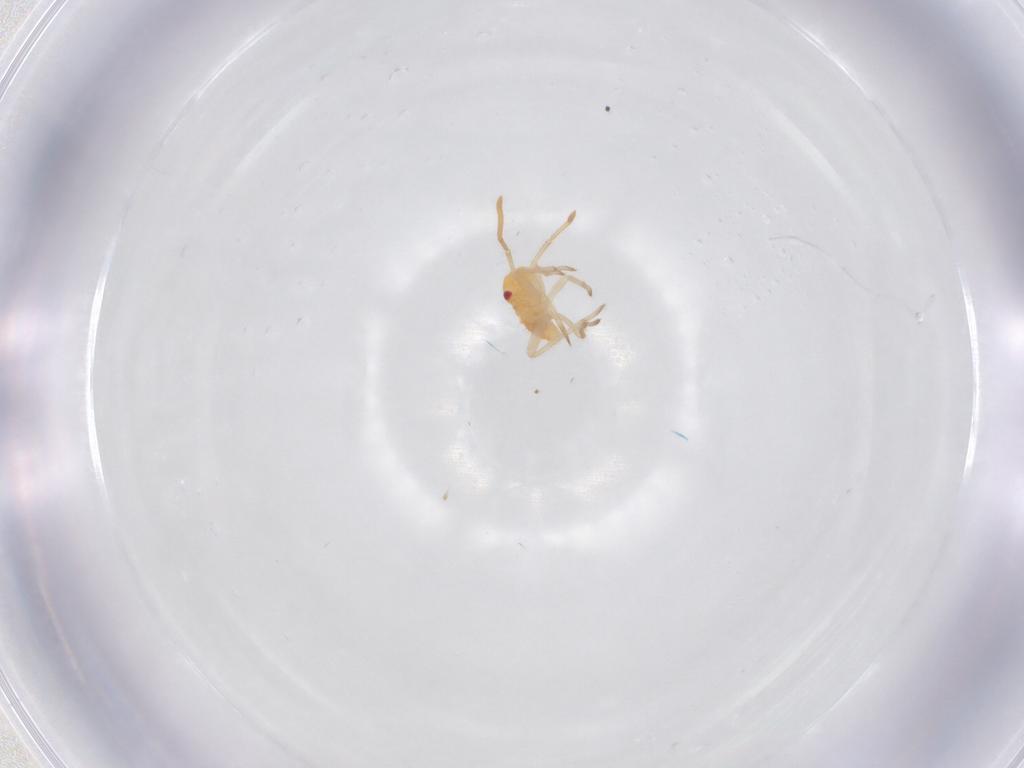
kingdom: Animalia
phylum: Arthropoda
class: Insecta
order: Hemiptera
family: Miridae
